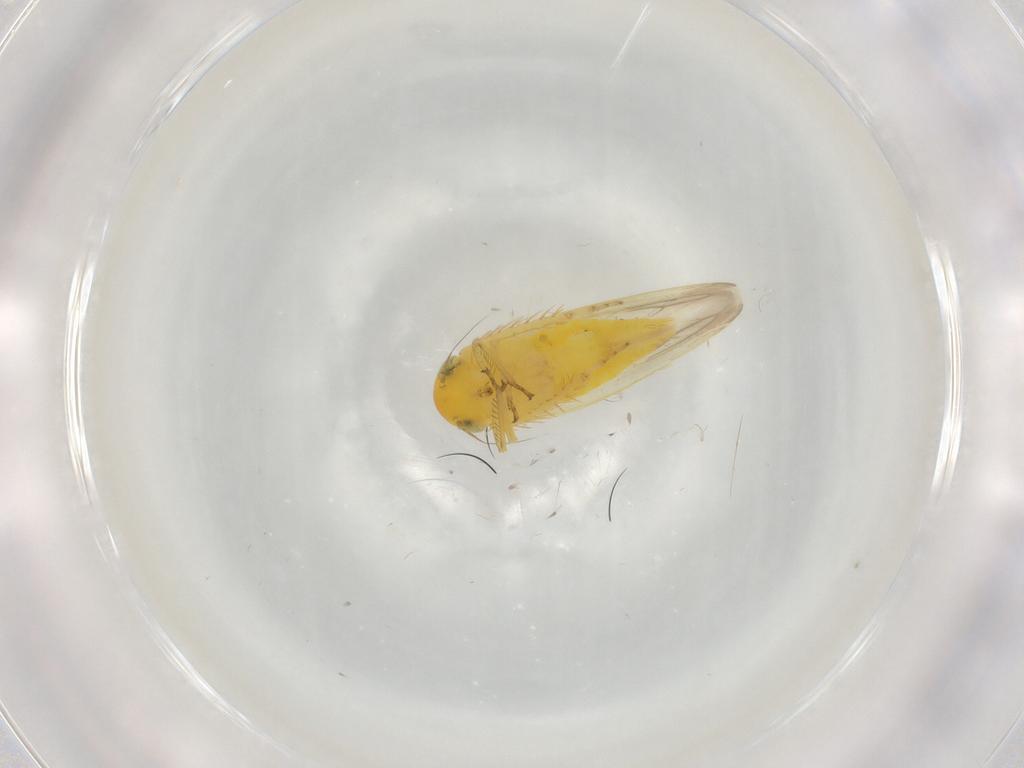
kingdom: Animalia
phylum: Arthropoda
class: Insecta
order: Hemiptera
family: Cicadellidae
